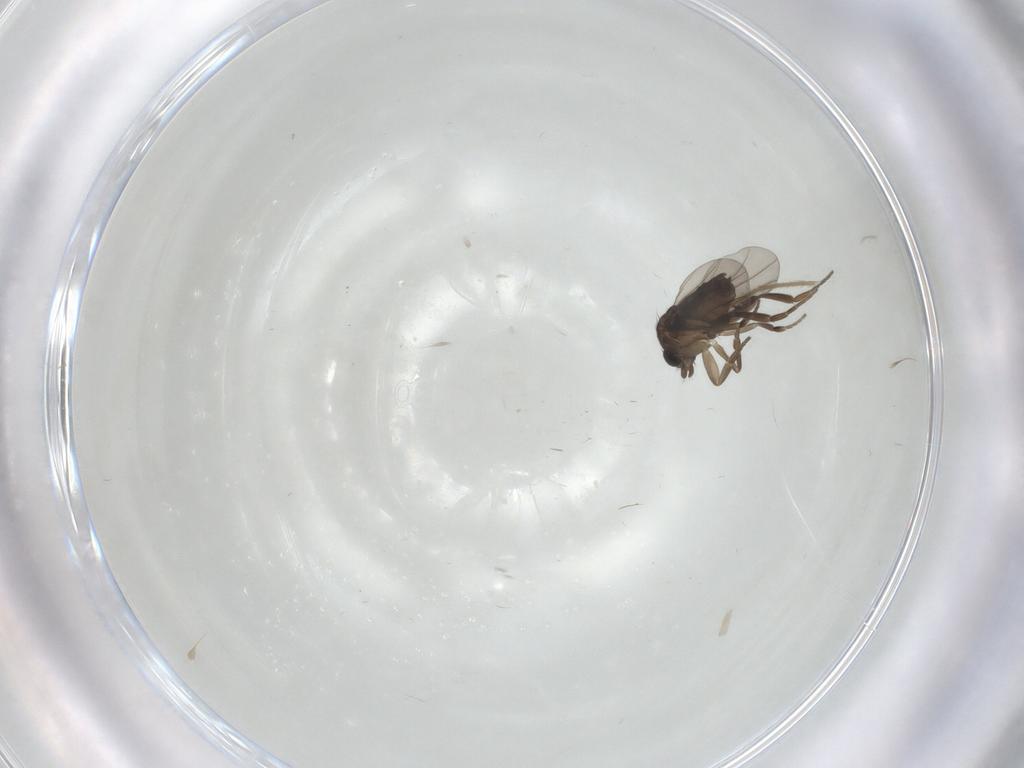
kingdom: Animalia
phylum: Arthropoda
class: Insecta
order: Diptera
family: Chironomidae
